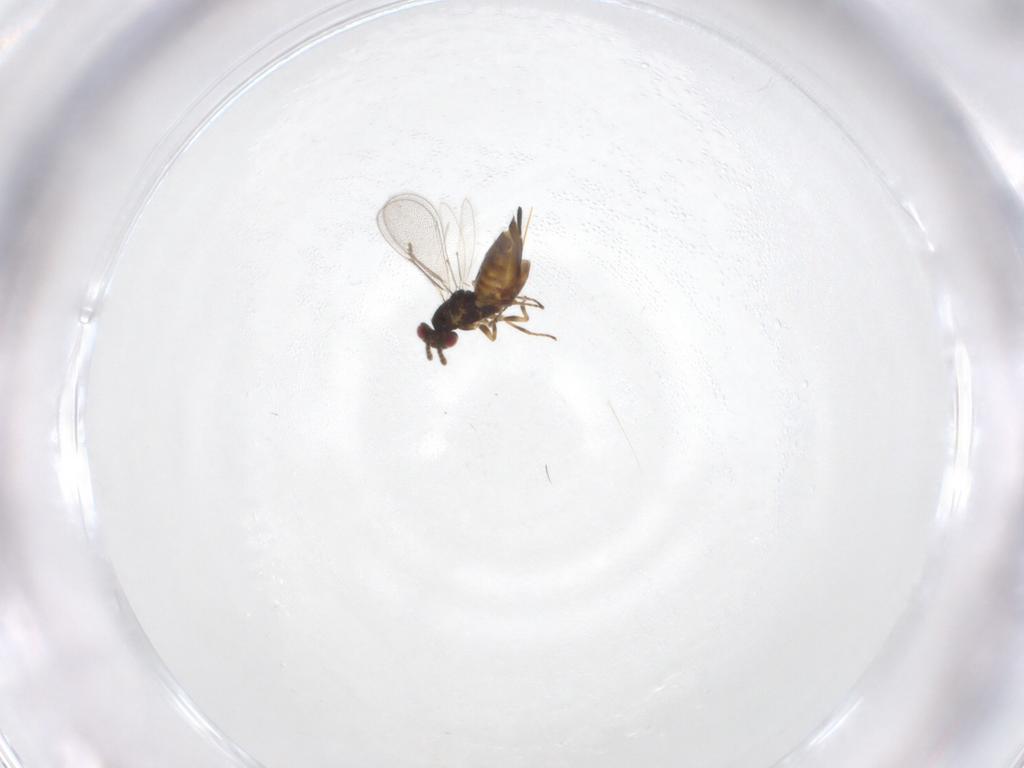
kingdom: Animalia
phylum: Arthropoda
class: Insecta
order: Hymenoptera
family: Eulophidae
